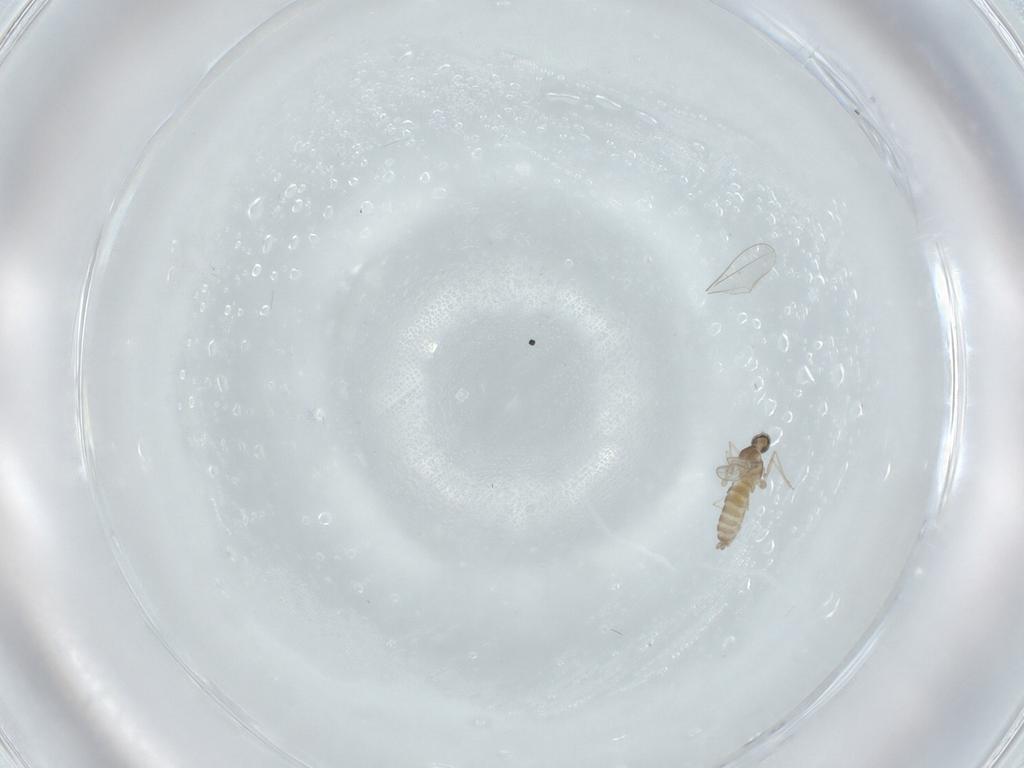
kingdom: Animalia
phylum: Arthropoda
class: Insecta
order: Diptera
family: Cecidomyiidae
